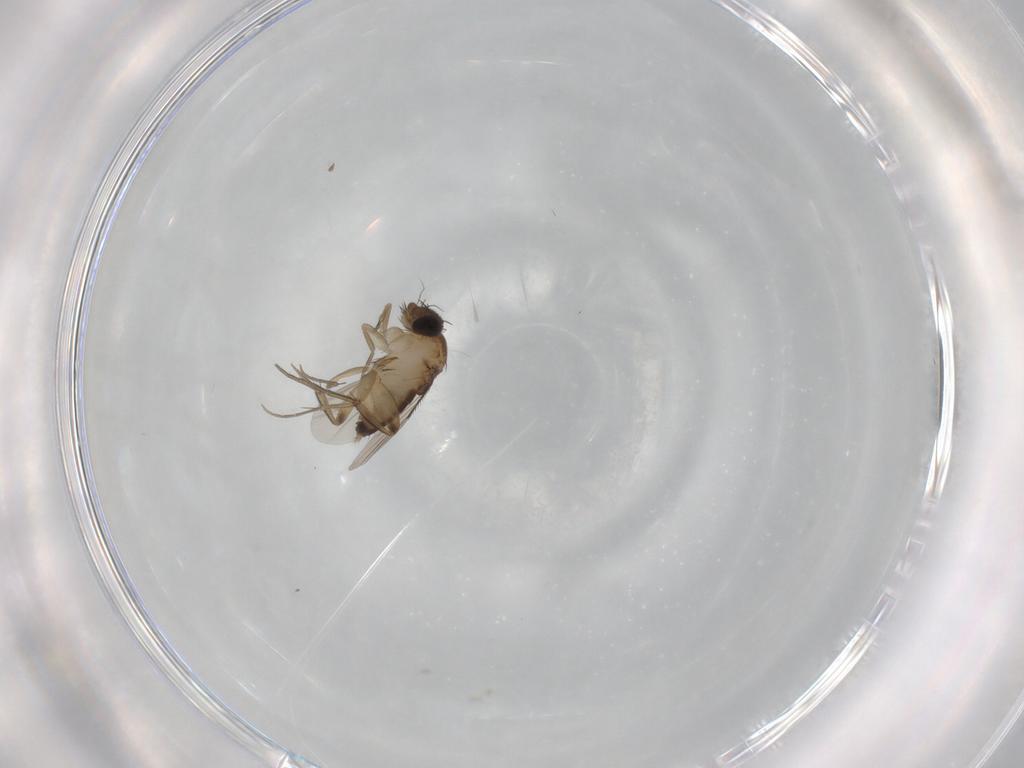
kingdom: Animalia
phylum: Arthropoda
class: Insecta
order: Diptera
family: Phoridae
